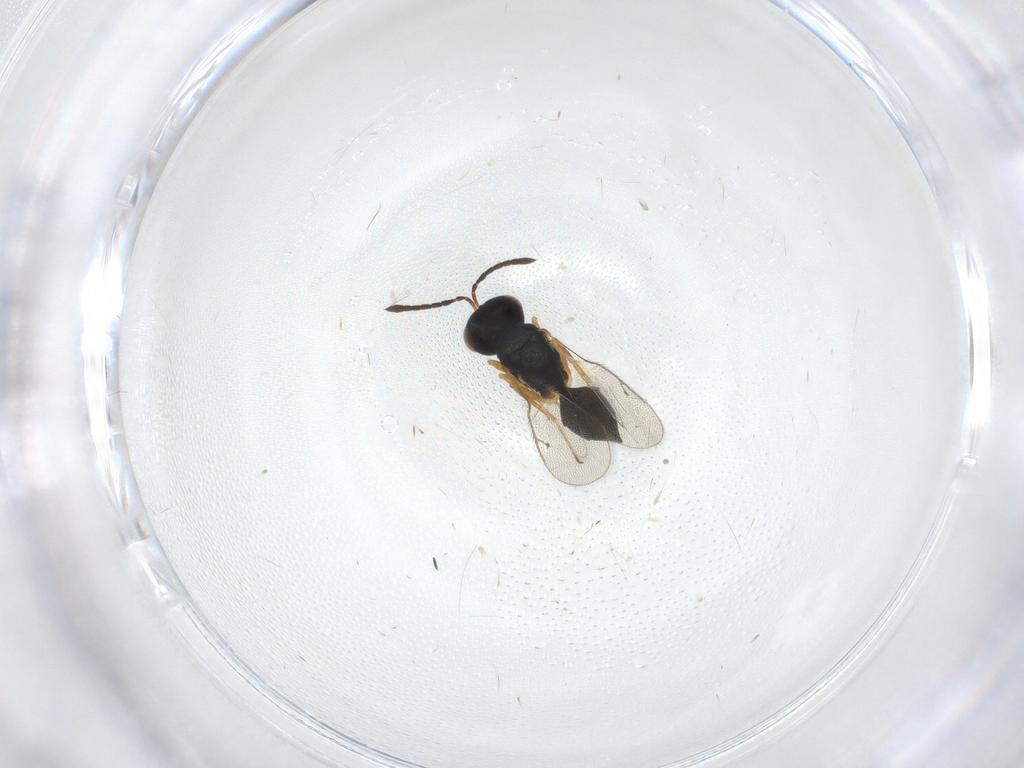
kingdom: Animalia
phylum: Arthropoda
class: Insecta
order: Hymenoptera
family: Pteromalidae
